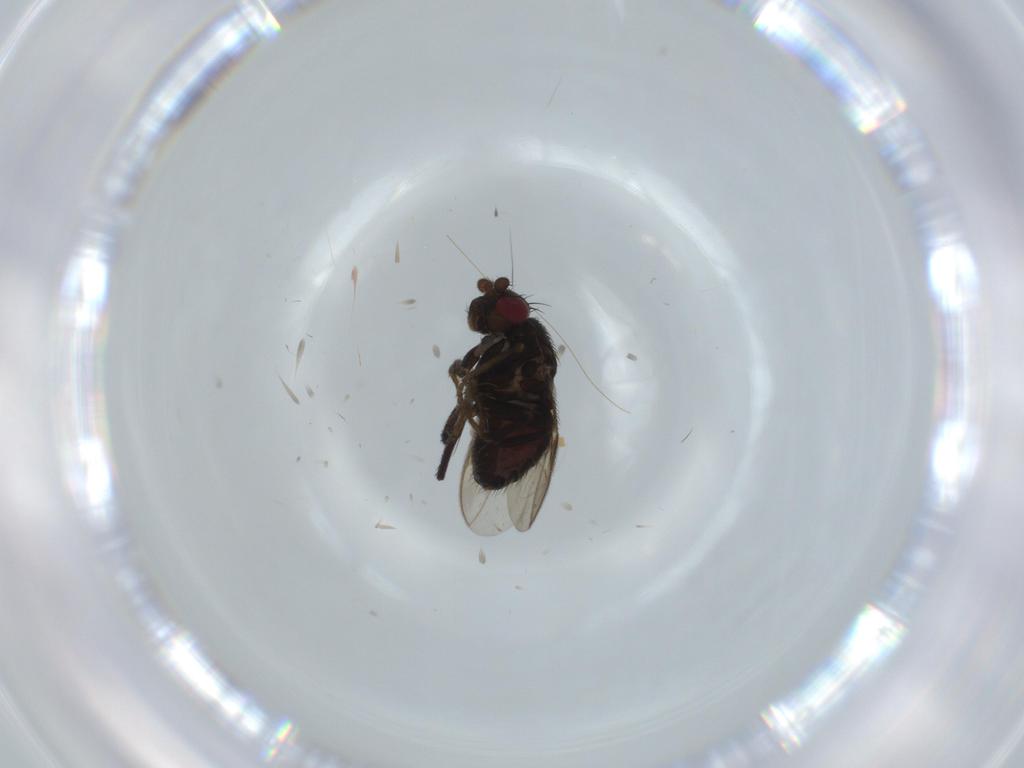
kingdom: Animalia
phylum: Arthropoda
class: Insecta
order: Diptera
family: Sphaeroceridae
